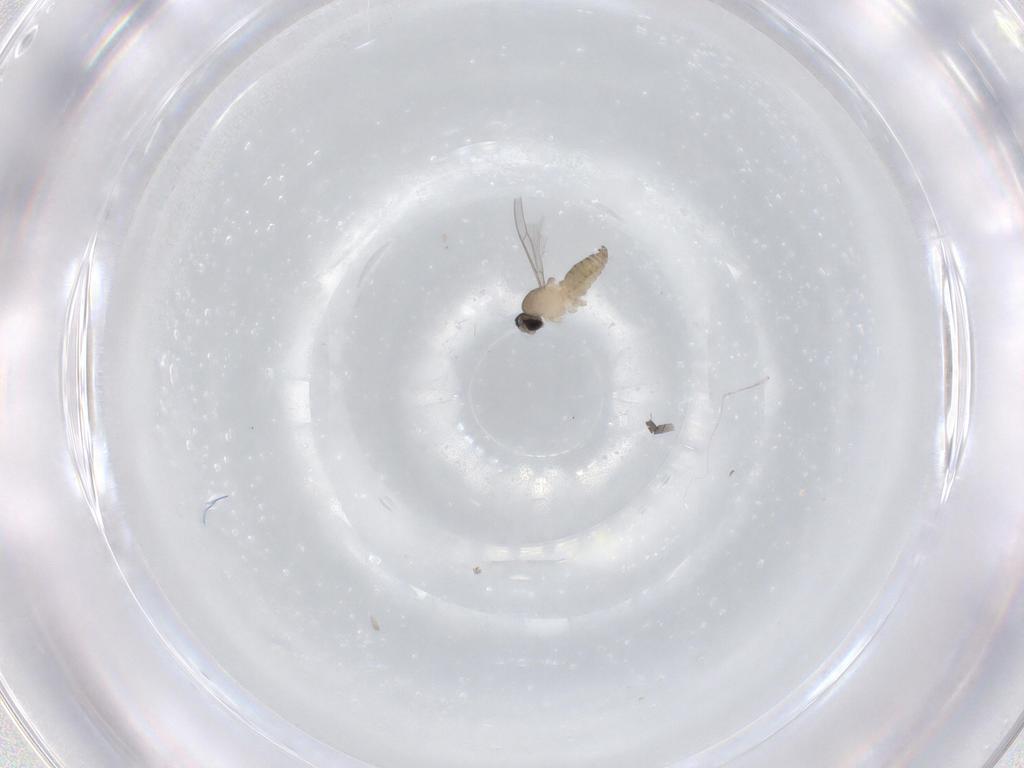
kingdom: Animalia
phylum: Arthropoda
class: Insecta
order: Diptera
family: Cecidomyiidae
